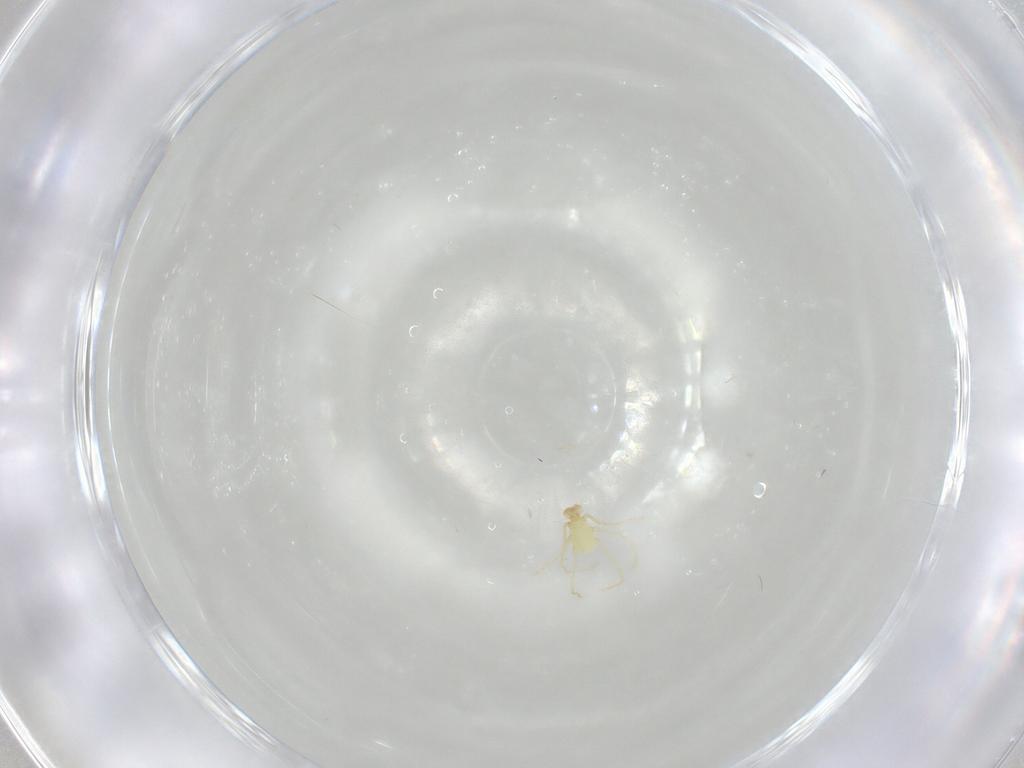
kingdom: Animalia
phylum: Arthropoda
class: Arachnida
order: Trombidiformes
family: Erythraeidae
